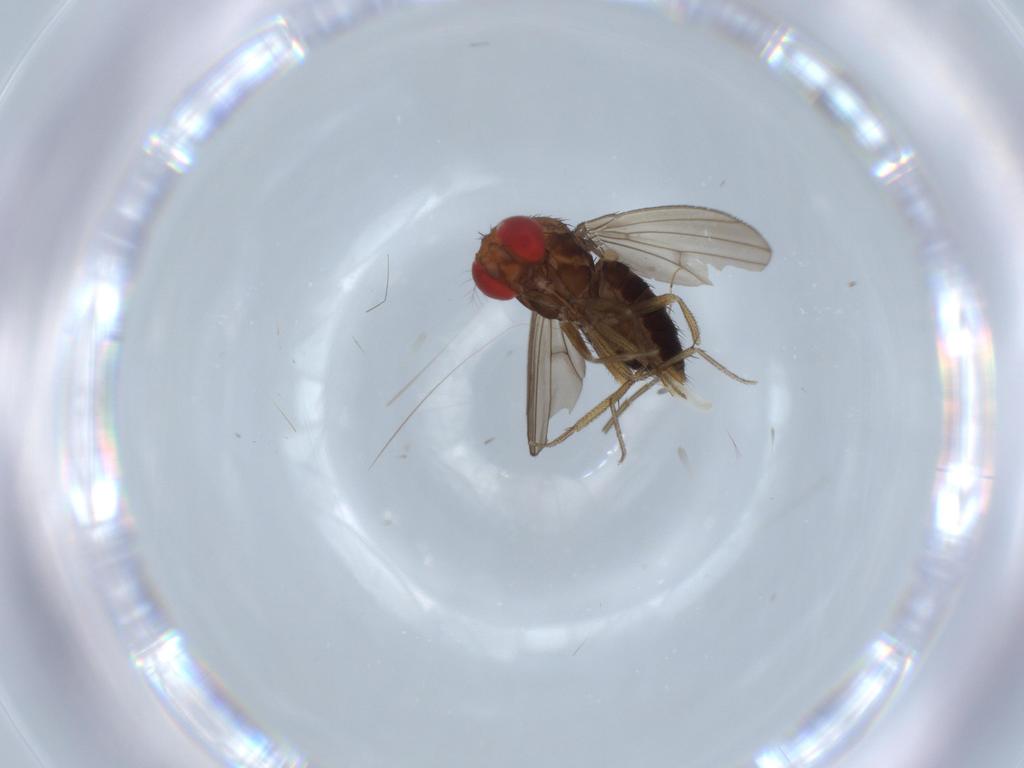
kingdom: Animalia
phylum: Arthropoda
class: Insecta
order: Diptera
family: Drosophilidae
